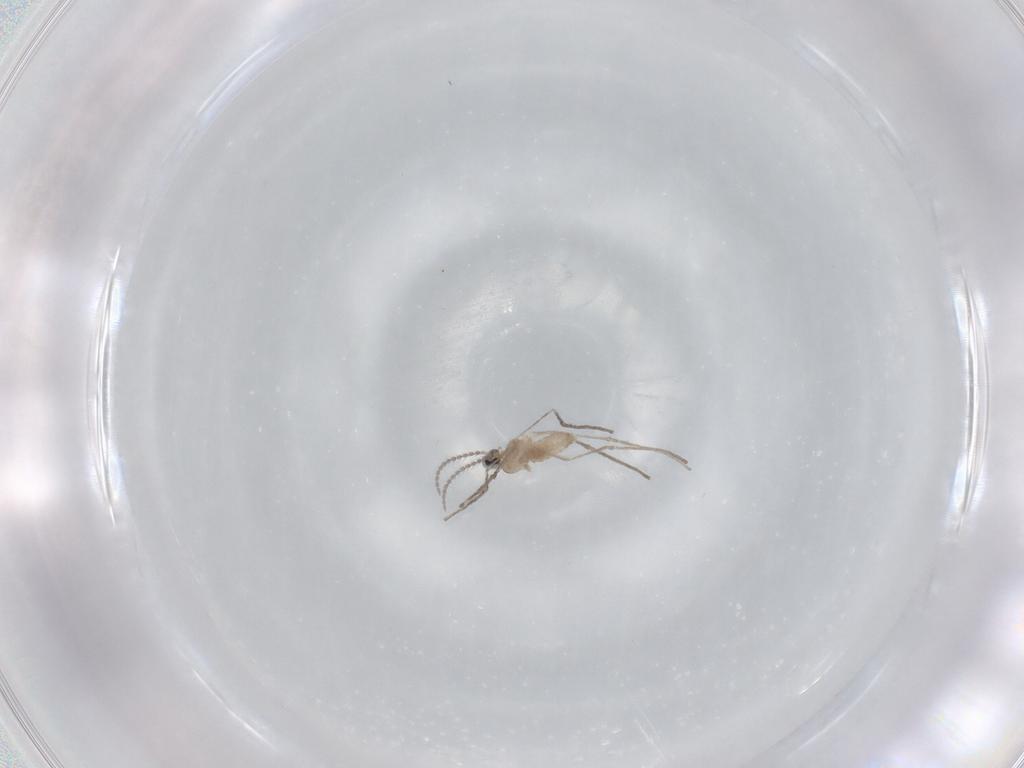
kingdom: Animalia
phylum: Arthropoda
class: Insecta
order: Diptera
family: Cecidomyiidae
